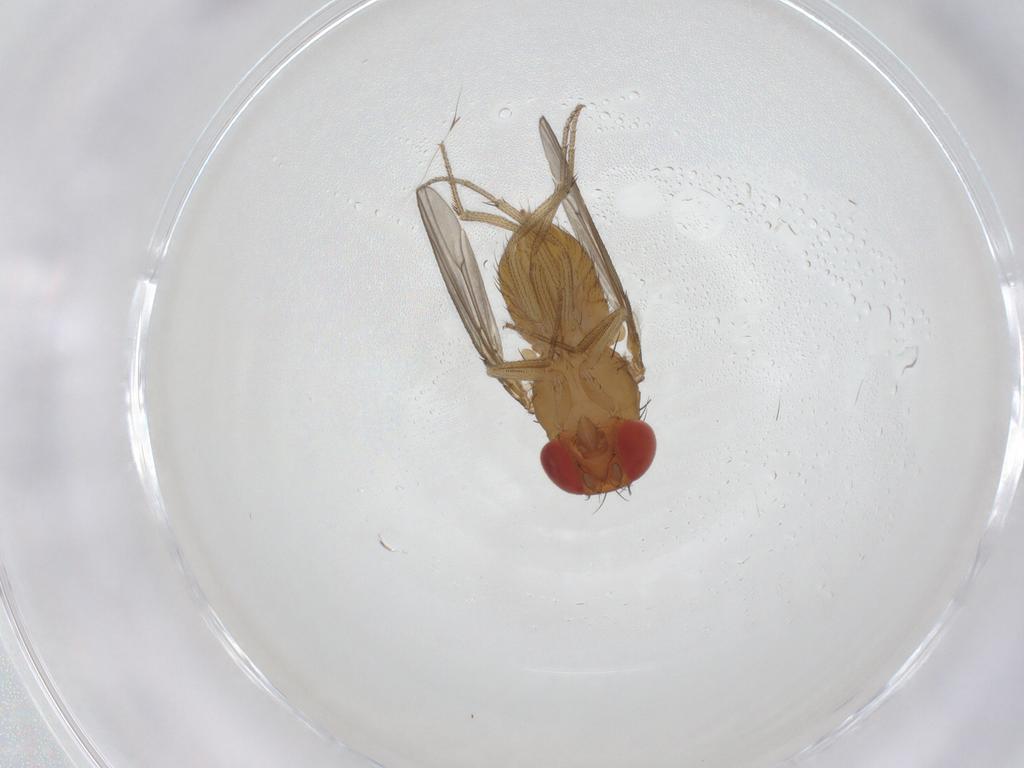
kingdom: Animalia
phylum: Arthropoda
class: Insecta
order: Diptera
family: Drosophilidae
